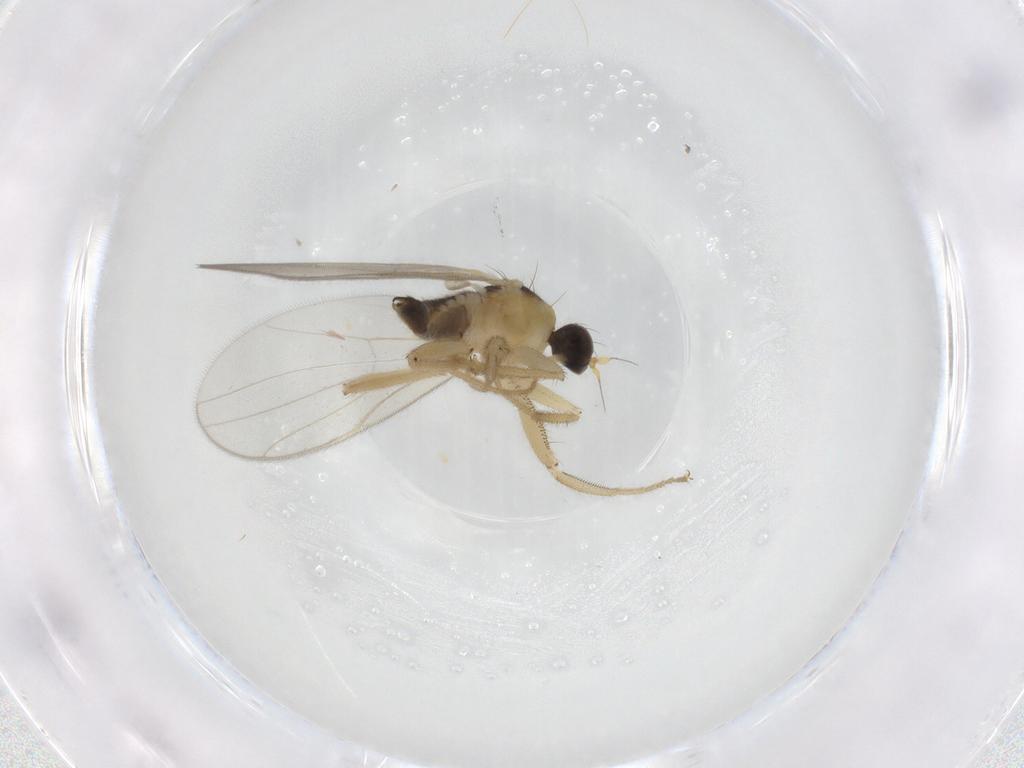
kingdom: Animalia
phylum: Arthropoda
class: Insecta
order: Diptera
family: Hybotidae
